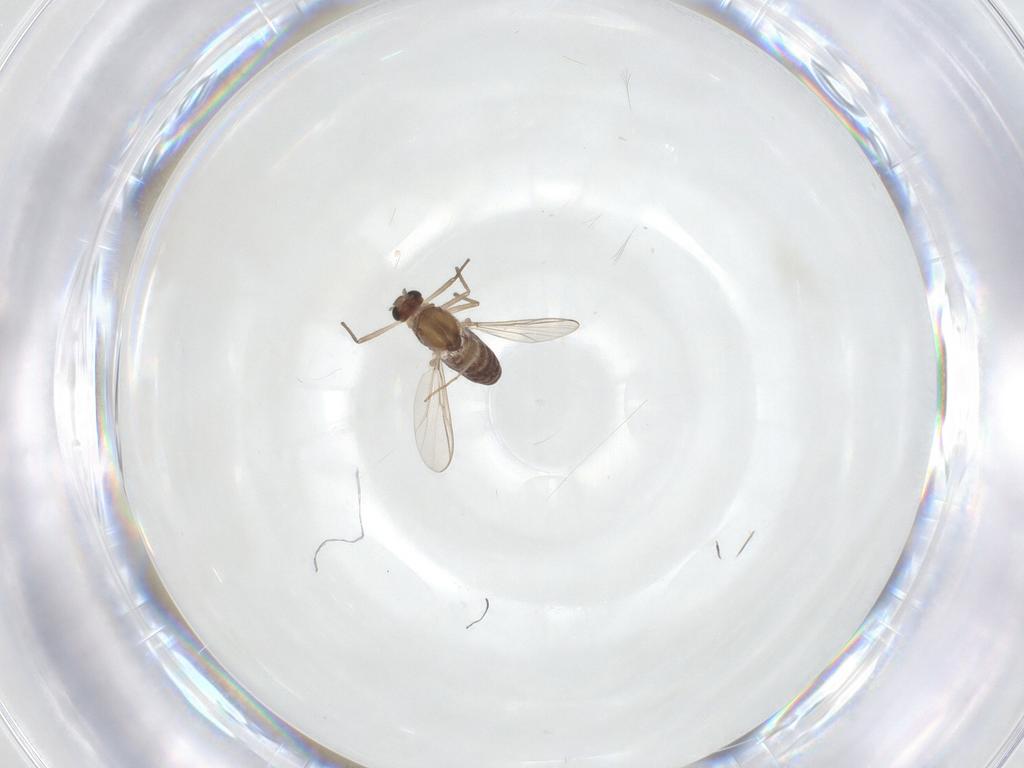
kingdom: Animalia
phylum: Arthropoda
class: Insecta
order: Diptera
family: Chironomidae
